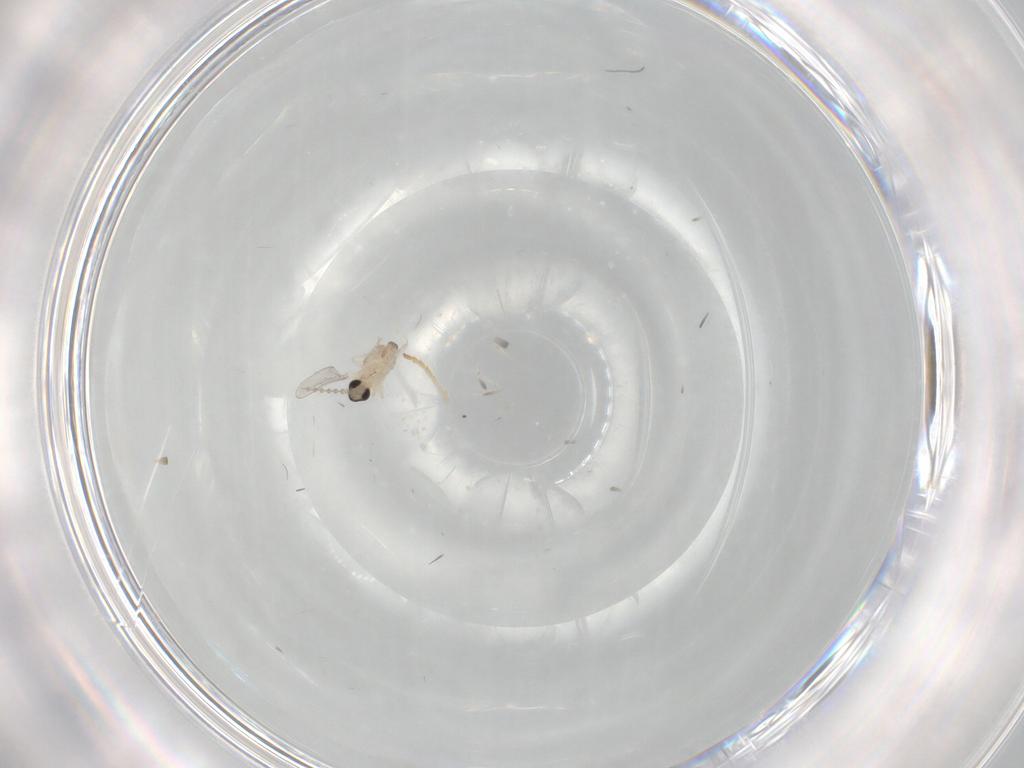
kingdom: Animalia
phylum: Arthropoda
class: Insecta
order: Diptera
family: Cecidomyiidae
